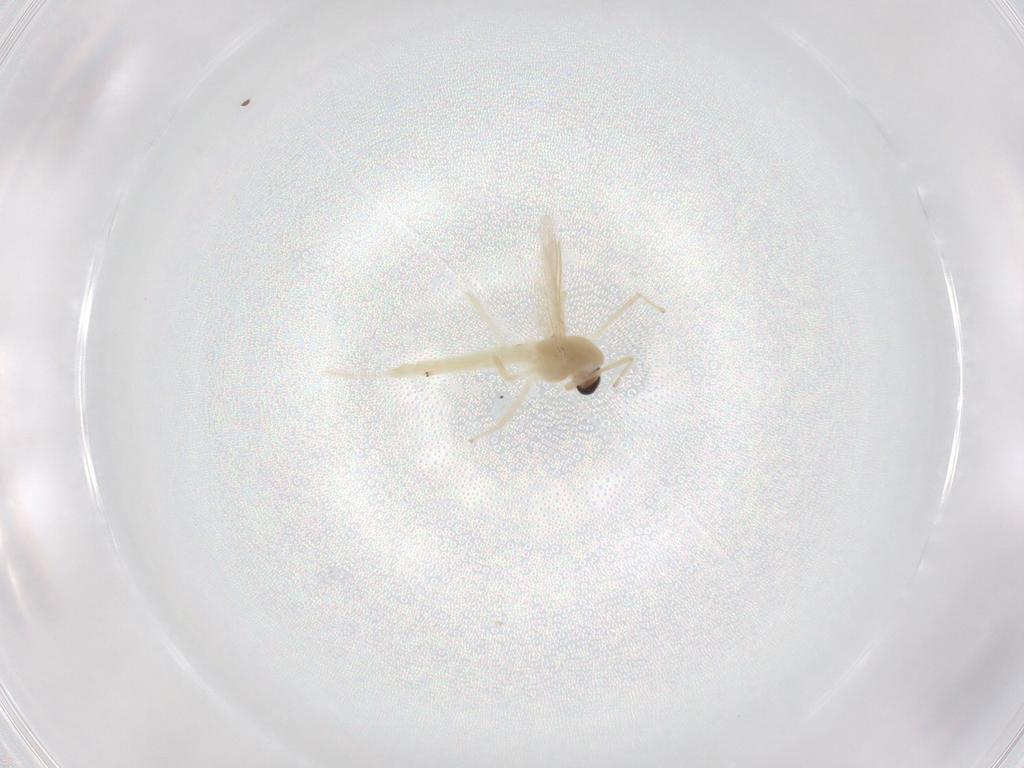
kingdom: Animalia
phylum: Arthropoda
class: Insecta
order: Diptera
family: Chironomidae
